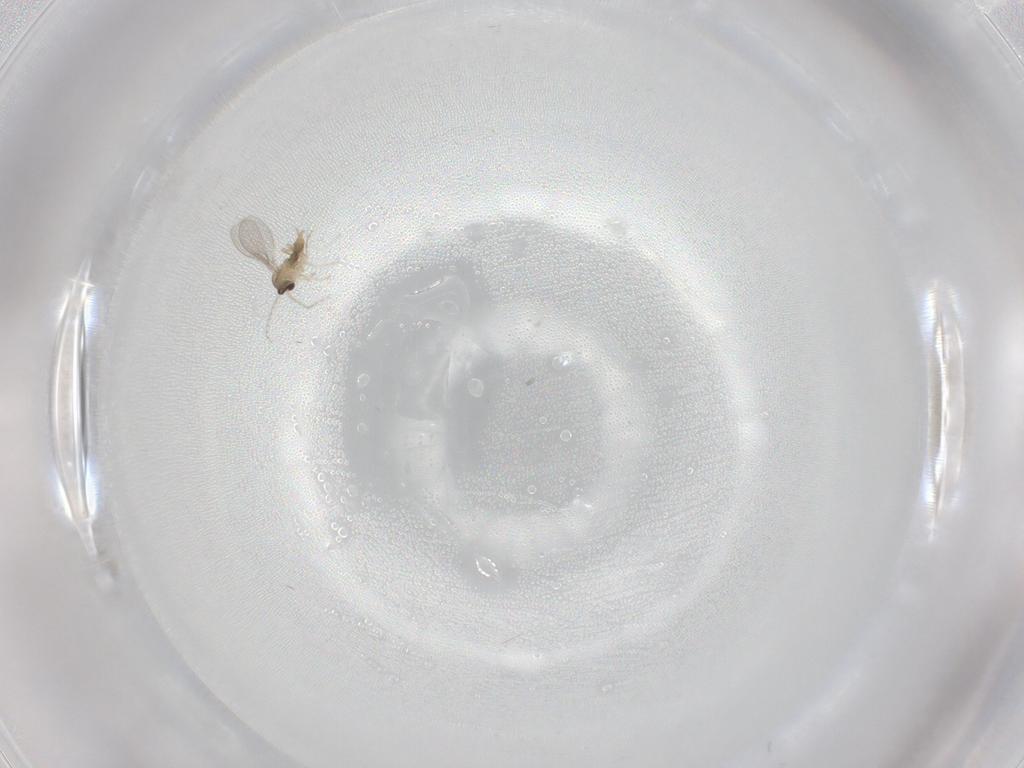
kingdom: Animalia
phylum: Arthropoda
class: Insecta
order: Diptera
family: Cecidomyiidae
